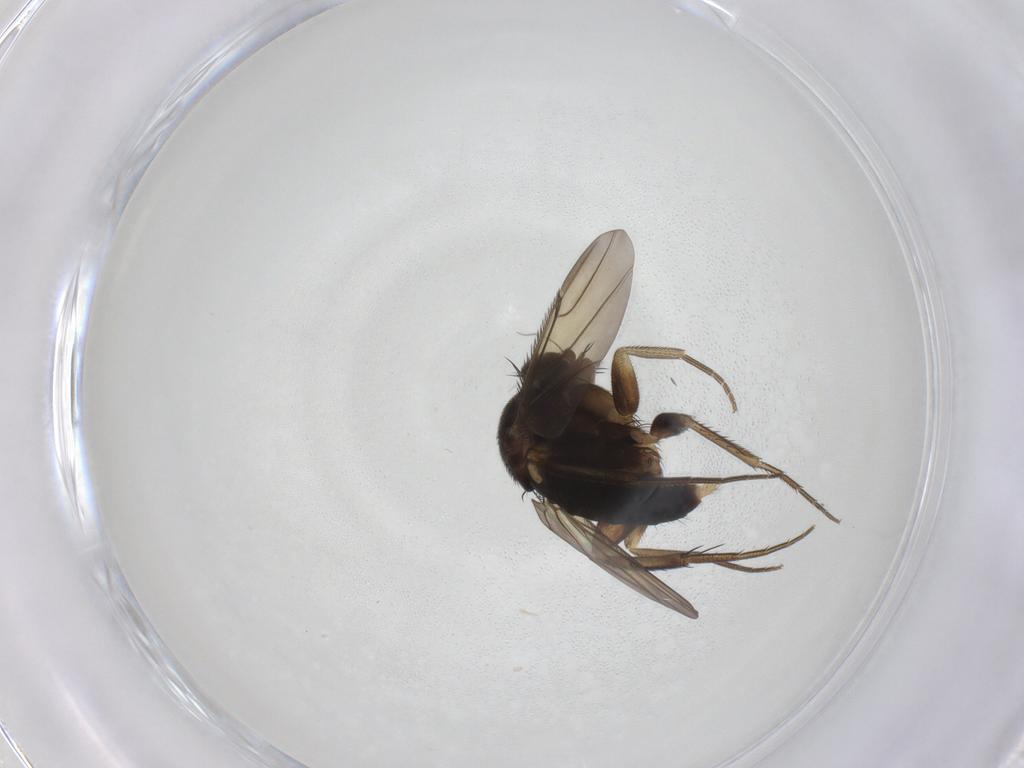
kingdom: Animalia
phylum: Arthropoda
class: Insecta
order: Diptera
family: Phoridae
